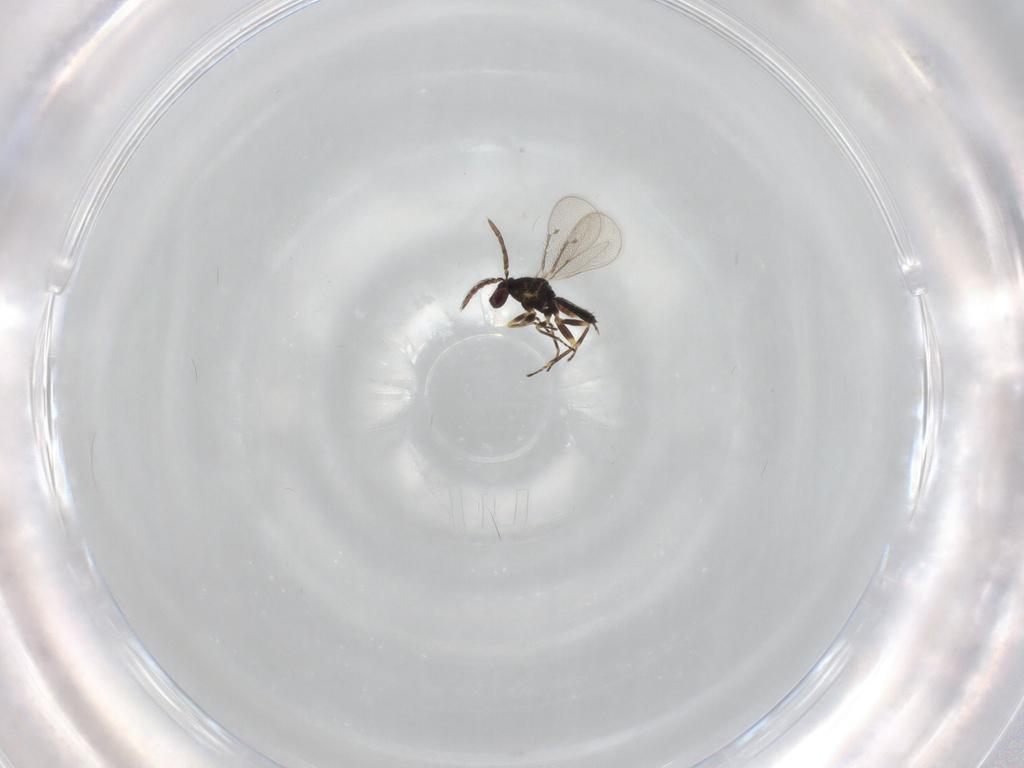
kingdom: Animalia
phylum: Arthropoda
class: Insecta
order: Hymenoptera
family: Eulophidae
